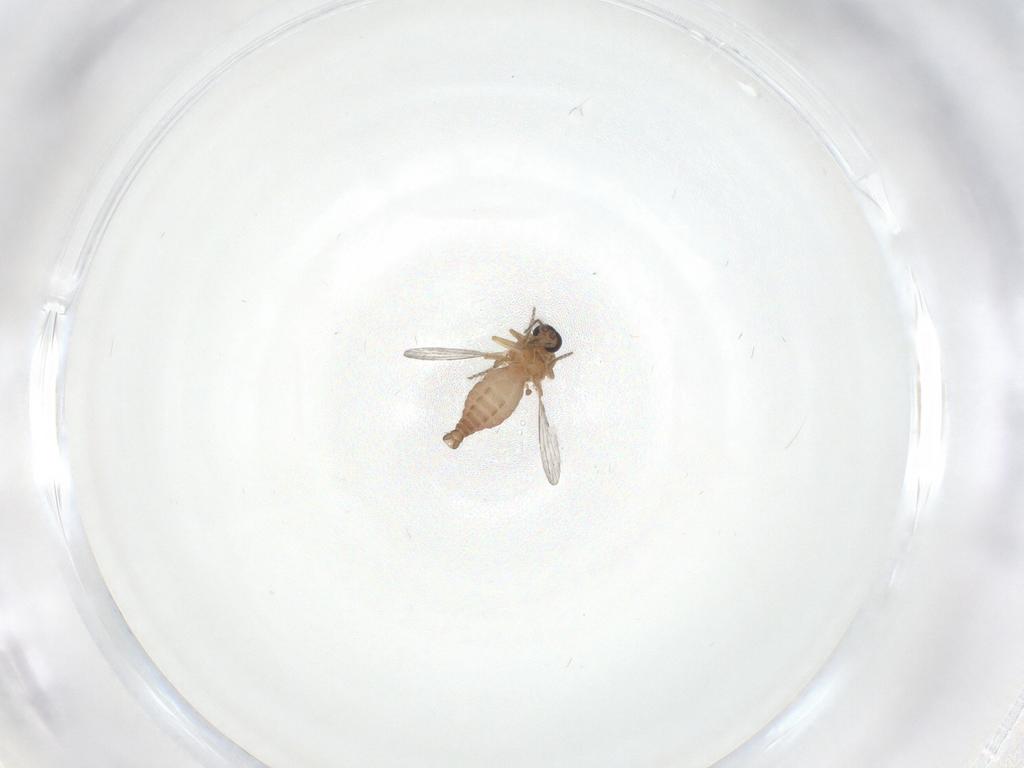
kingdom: Animalia
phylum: Arthropoda
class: Insecta
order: Diptera
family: Ceratopogonidae
